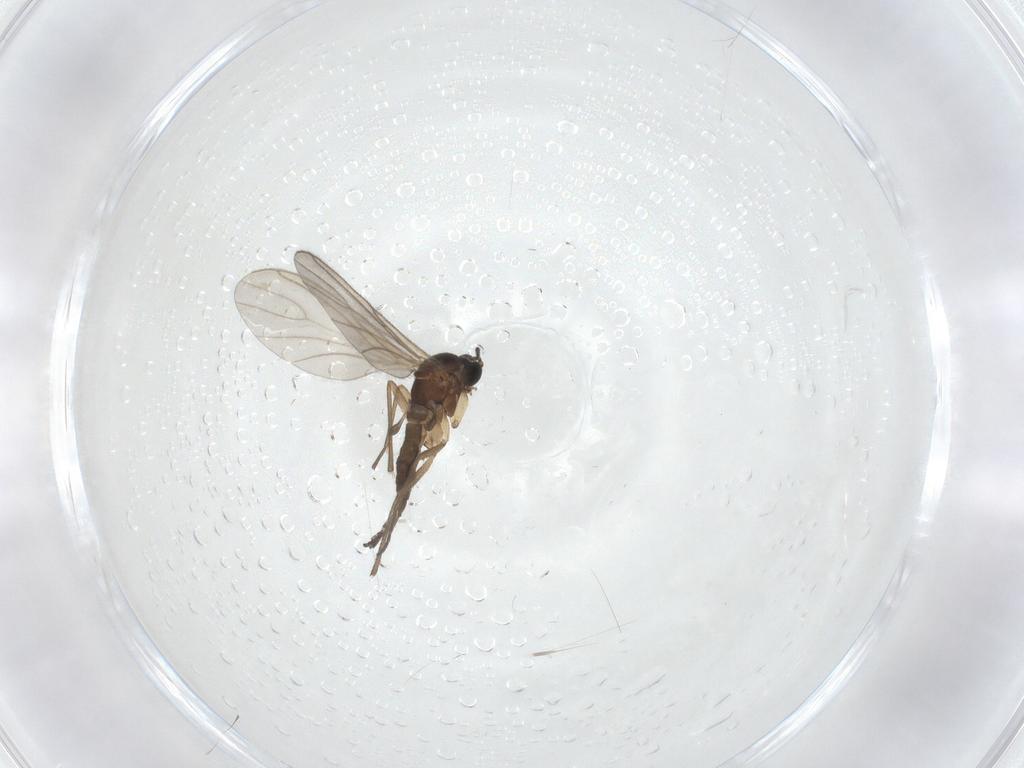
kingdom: Animalia
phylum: Arthropoda
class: Insecta
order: Diptera
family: Sciaridae
